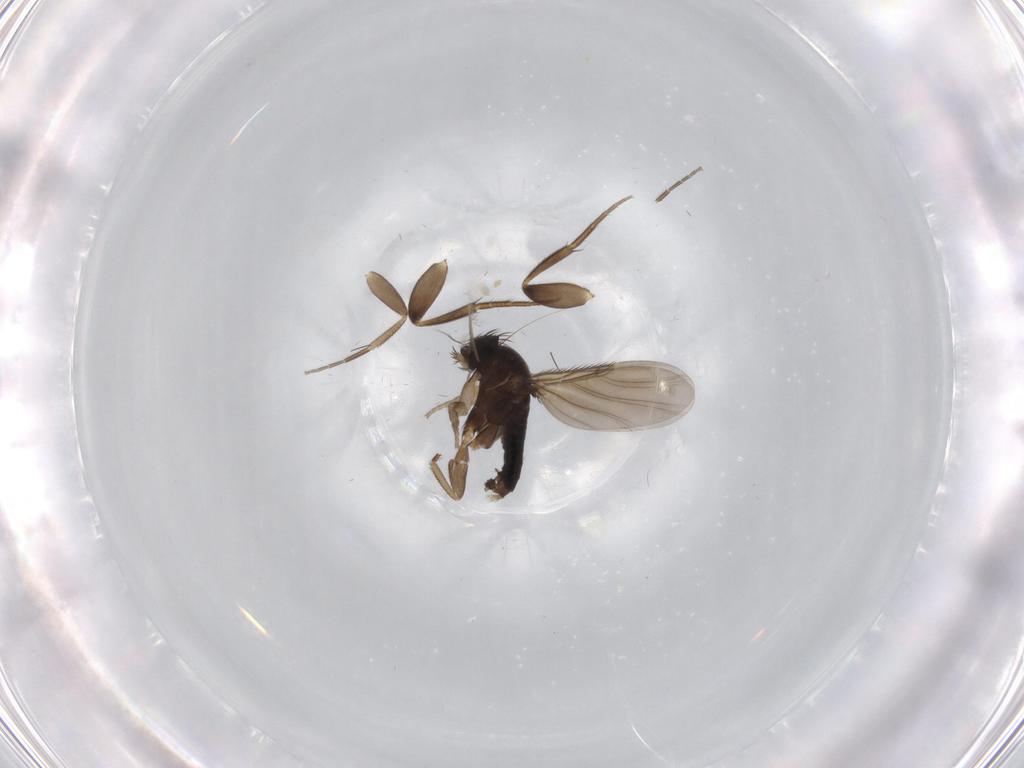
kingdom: Animalia
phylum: Arthropoda
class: Insecta
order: Diptera
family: Phoridae
